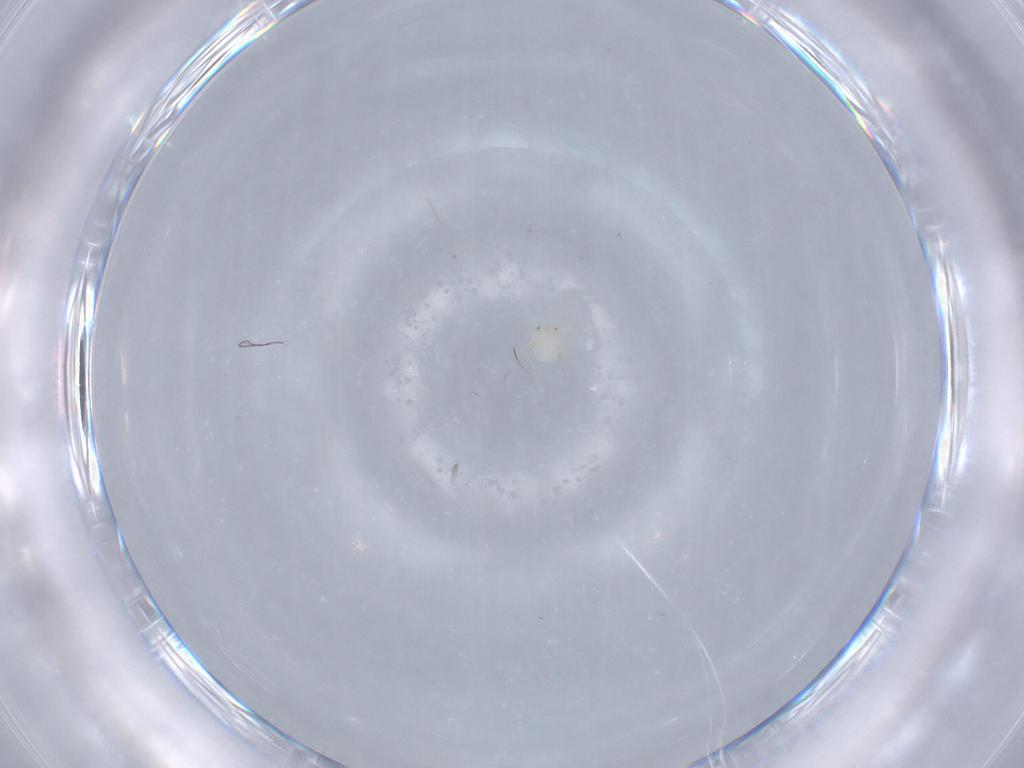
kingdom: Animalia
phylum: Arthropoda
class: Arachnida
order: Trombidiformes
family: Sperchontidae
